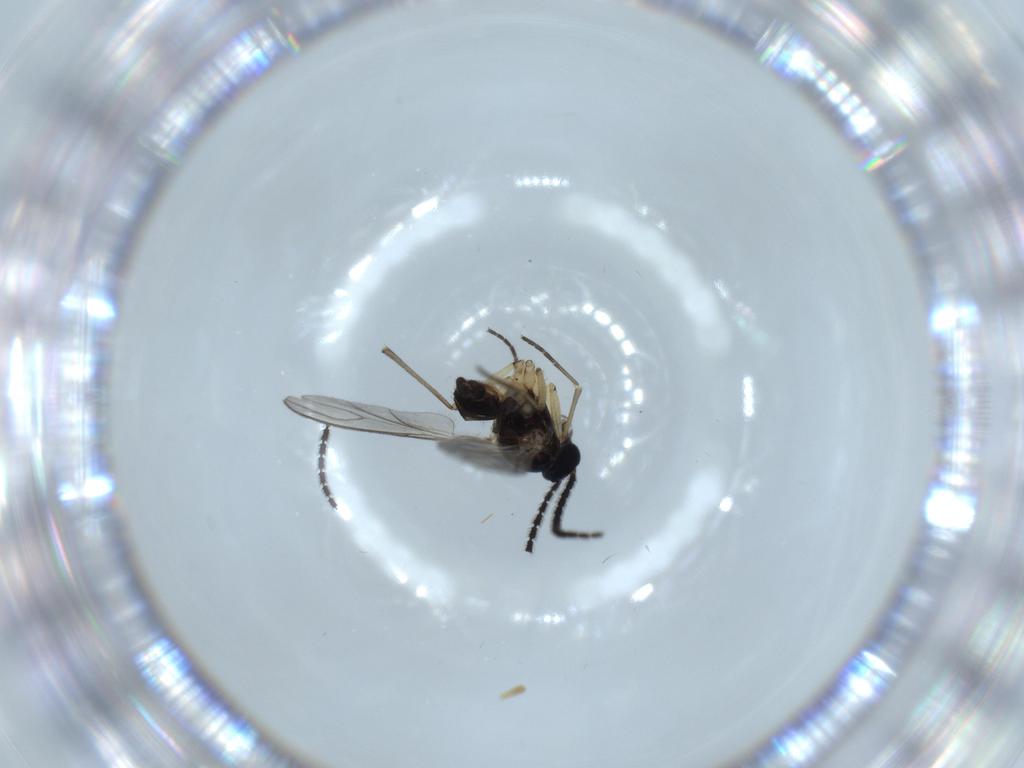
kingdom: Animalia
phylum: Arthropoda
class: Insecta
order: Diptera
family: Sciaridae
